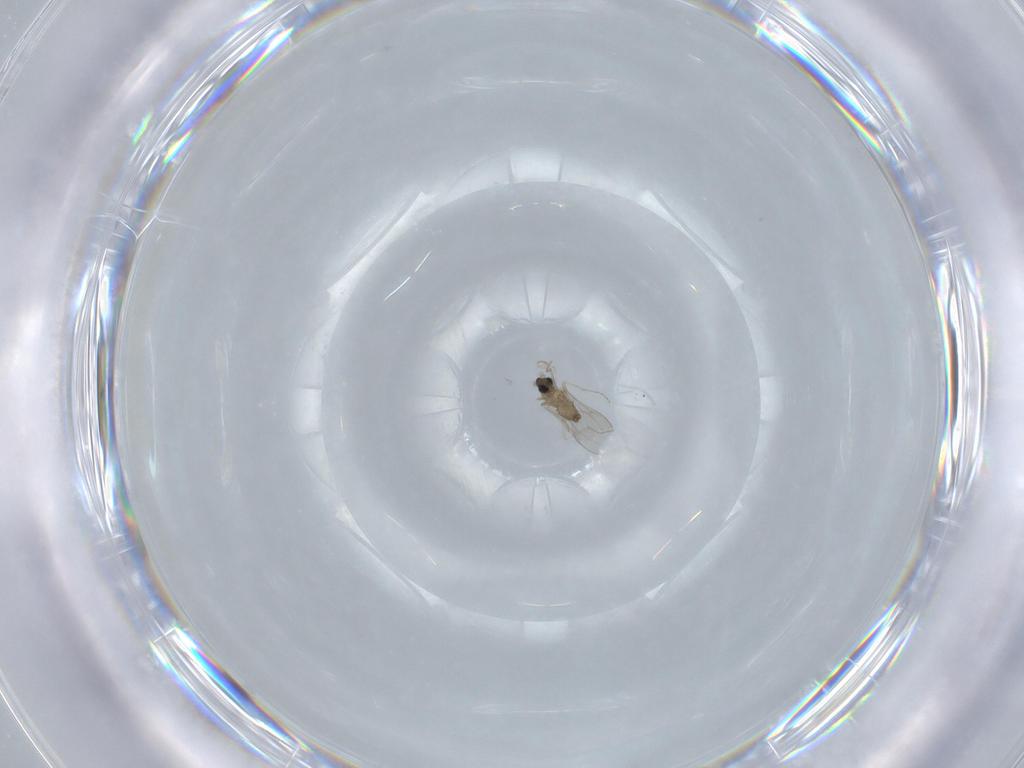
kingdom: Animalia
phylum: Arthropoda
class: Insecta
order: Diptera
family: Cecidomyiidae
